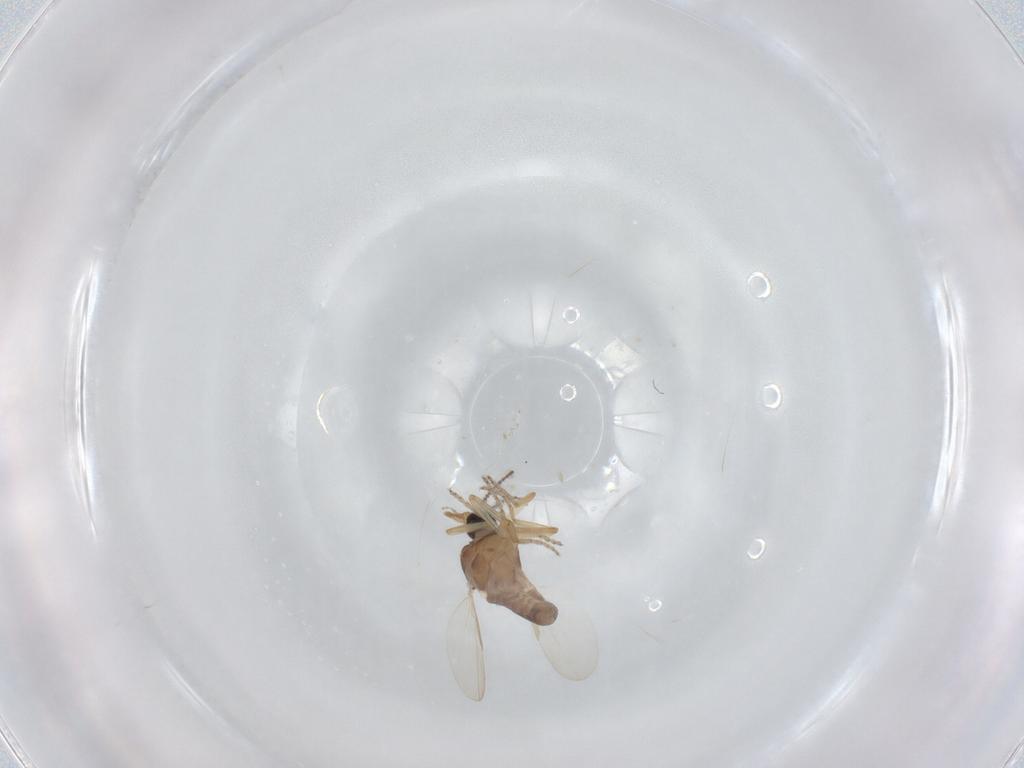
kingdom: Animalia
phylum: Arthropoda
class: Insecta
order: Diptera
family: Ceratopogonidae
